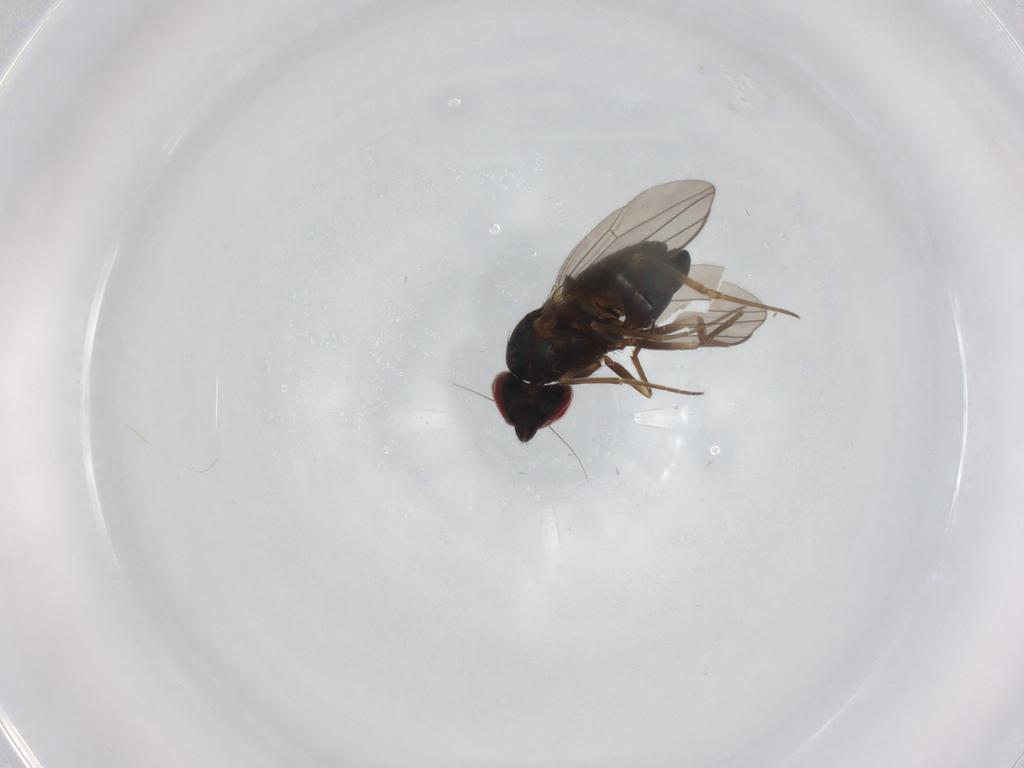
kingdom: Animalia
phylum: Arthropoda
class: Insecta
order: Diptera
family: Dolichopodidae
